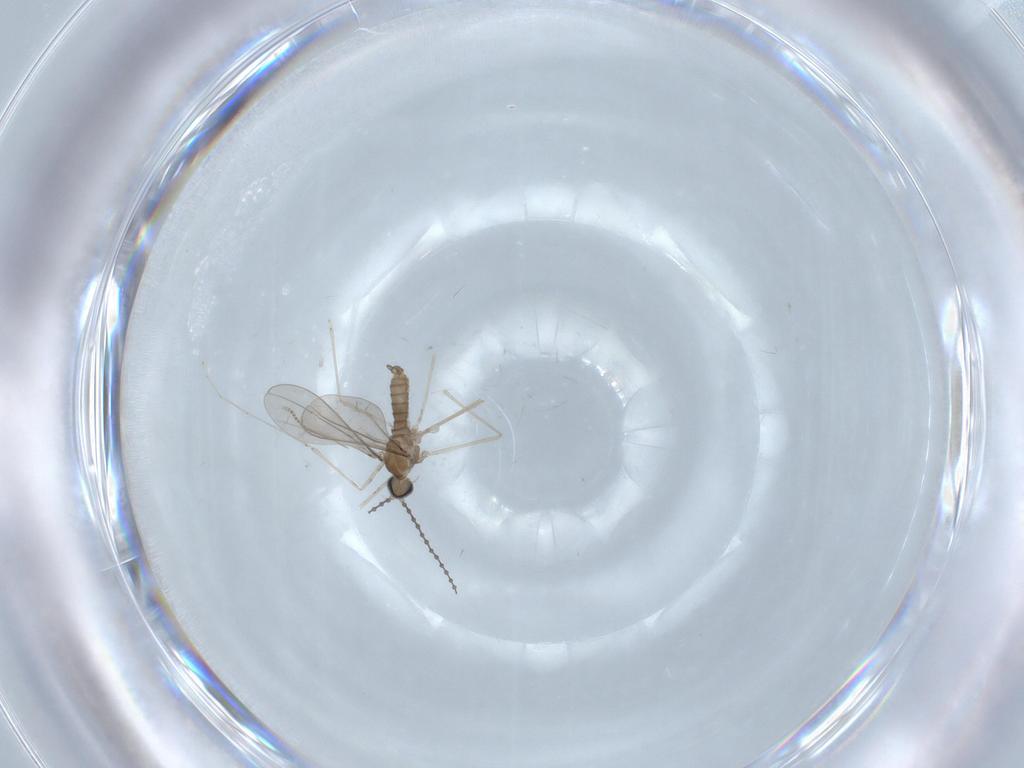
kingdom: Animalia
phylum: Arthropoda
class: Insecta
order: Diptera
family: Cecidomyiidae
